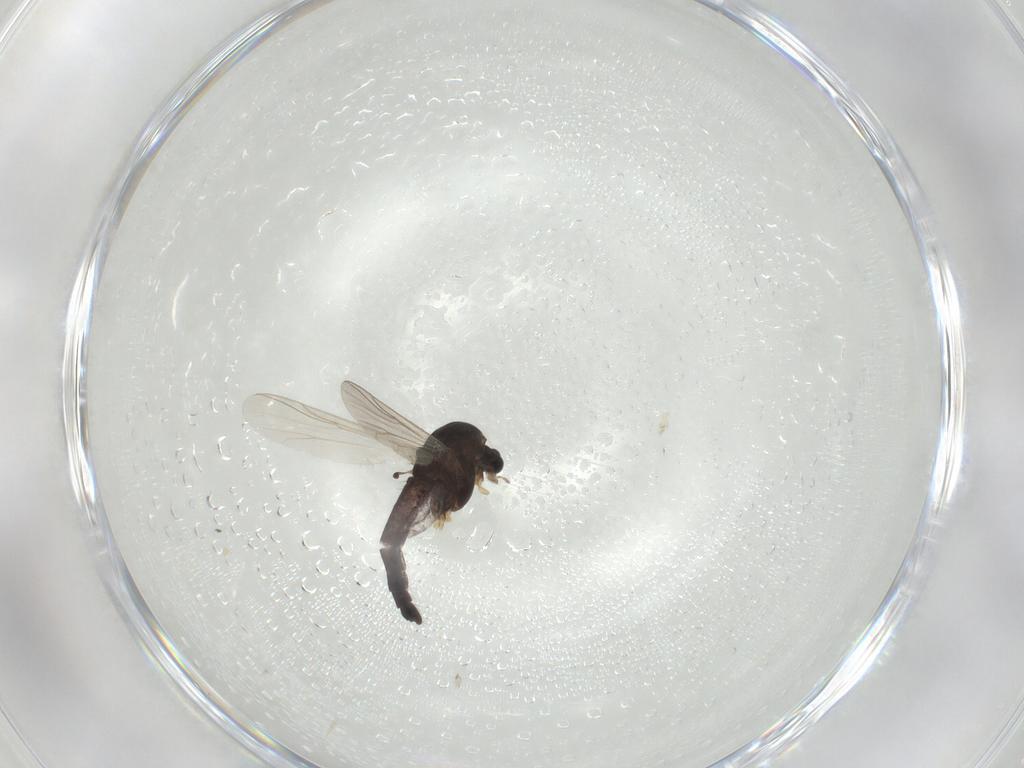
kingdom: Animalia
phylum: Arthropoda
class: Insecta
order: Diptera
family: Chironomidae
